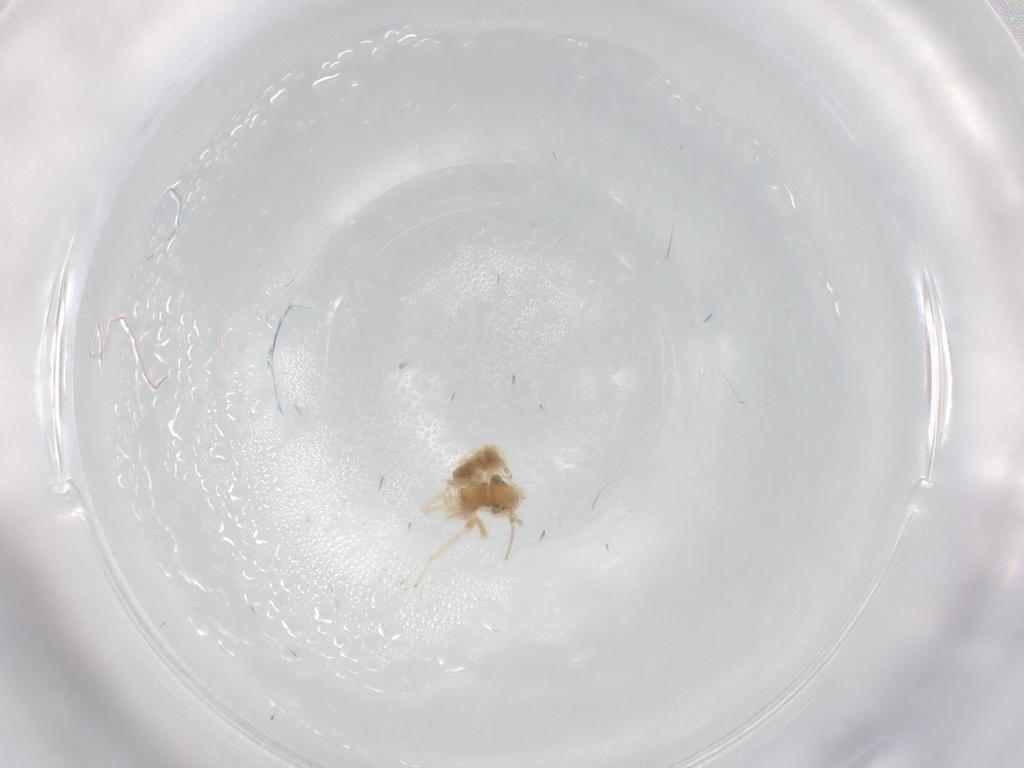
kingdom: Animalia
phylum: Arthropoda
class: Insecta
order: Psocodea
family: Lepidopsocidae
